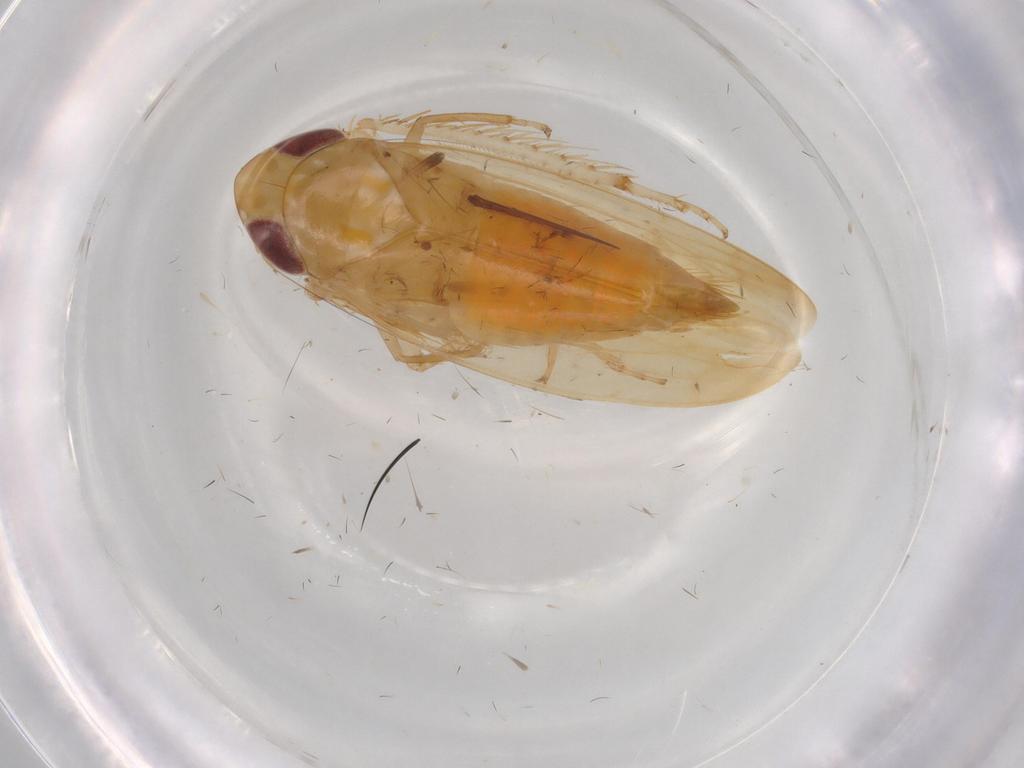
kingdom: Animalia
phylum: Arthropoda
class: Insecta
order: Hemiptera
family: Cicadellidae
